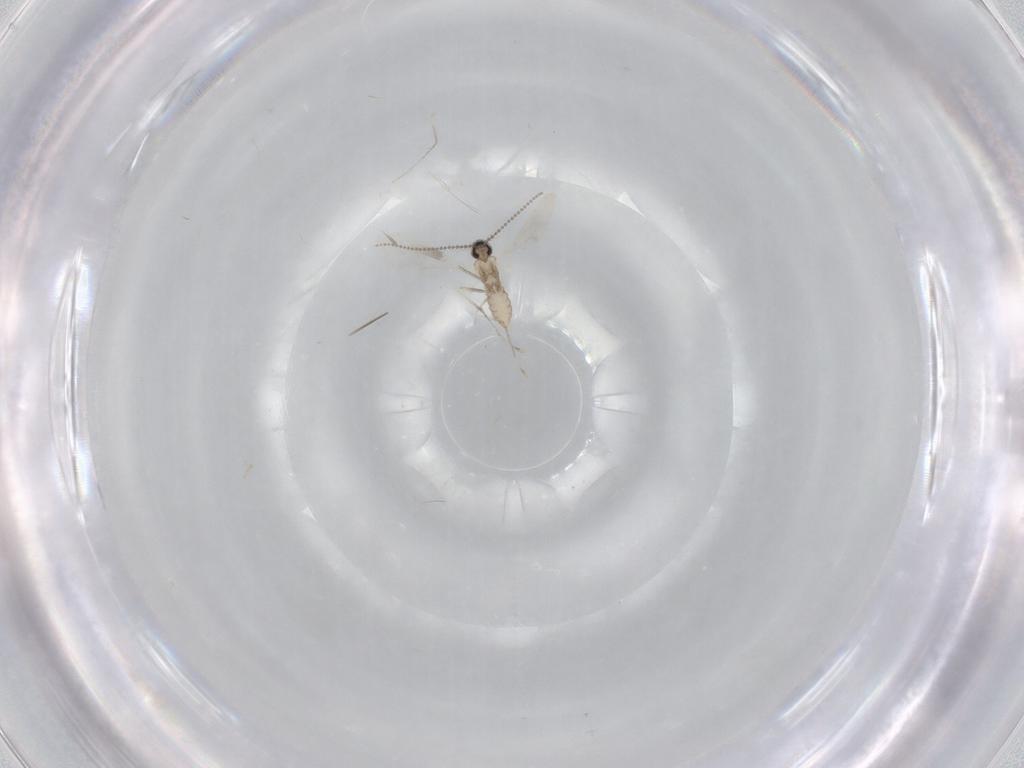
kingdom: Animalia
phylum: Arthropoda
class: Insecta
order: Diptera
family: Cecidomyiidae
